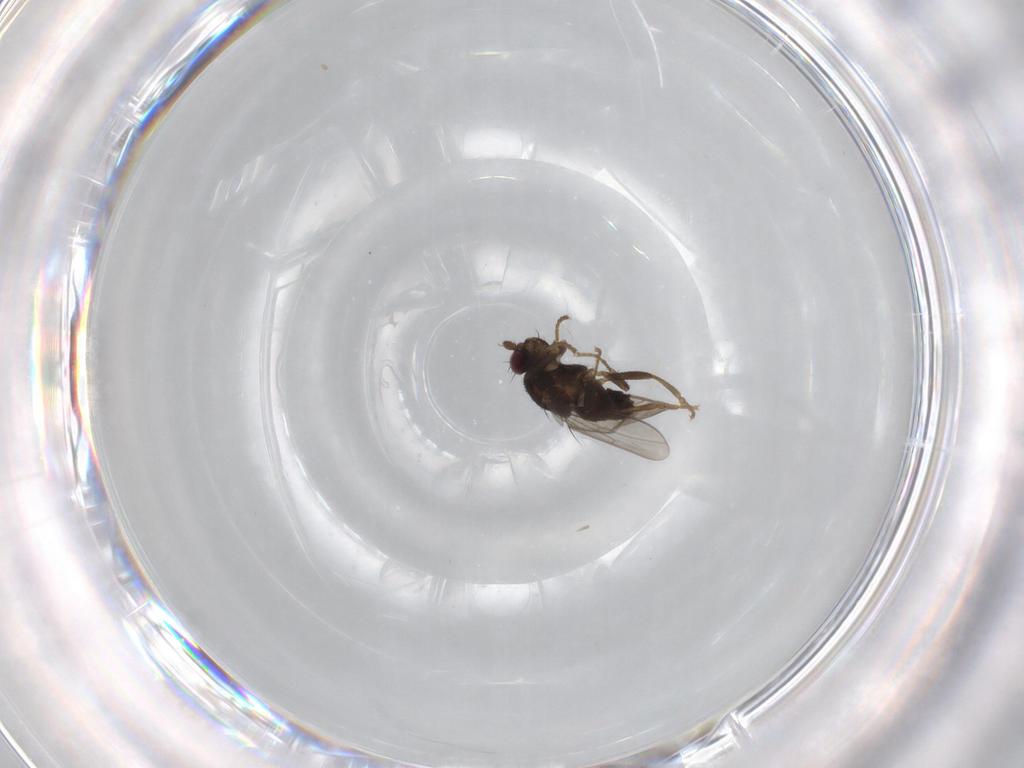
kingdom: Animalia
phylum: Arthropoda
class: Insecta
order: Diptera
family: Sphaeroceridae
